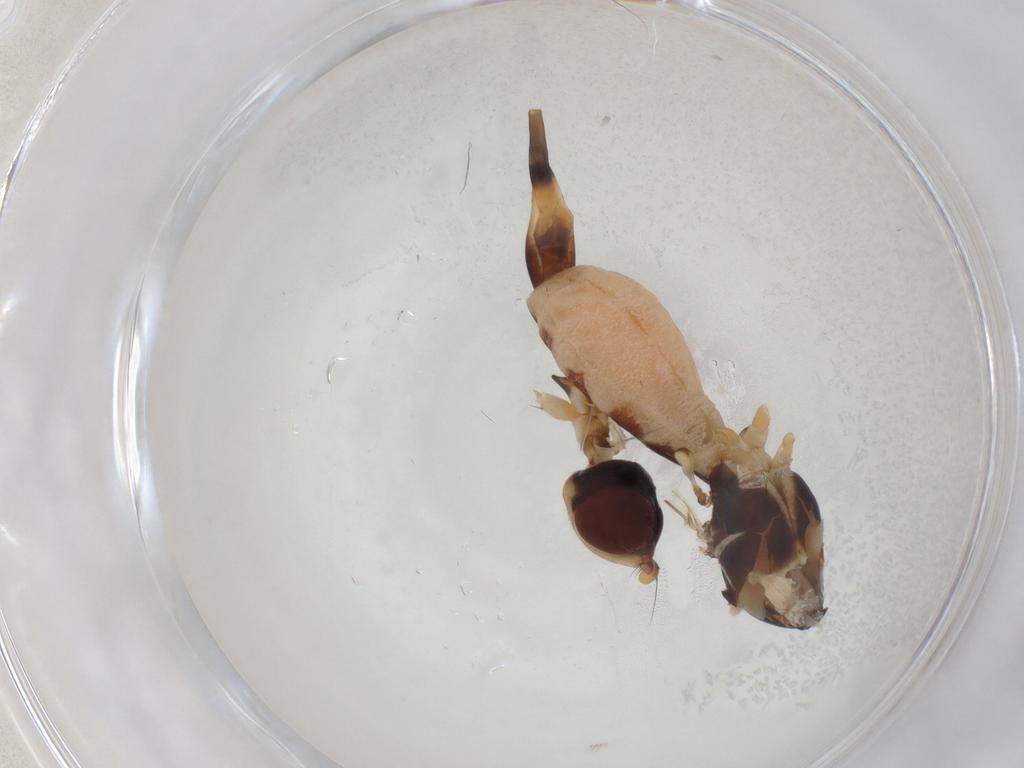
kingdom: Animalia
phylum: Arthropoda
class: Insecta
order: Diptera
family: Micropezidae
